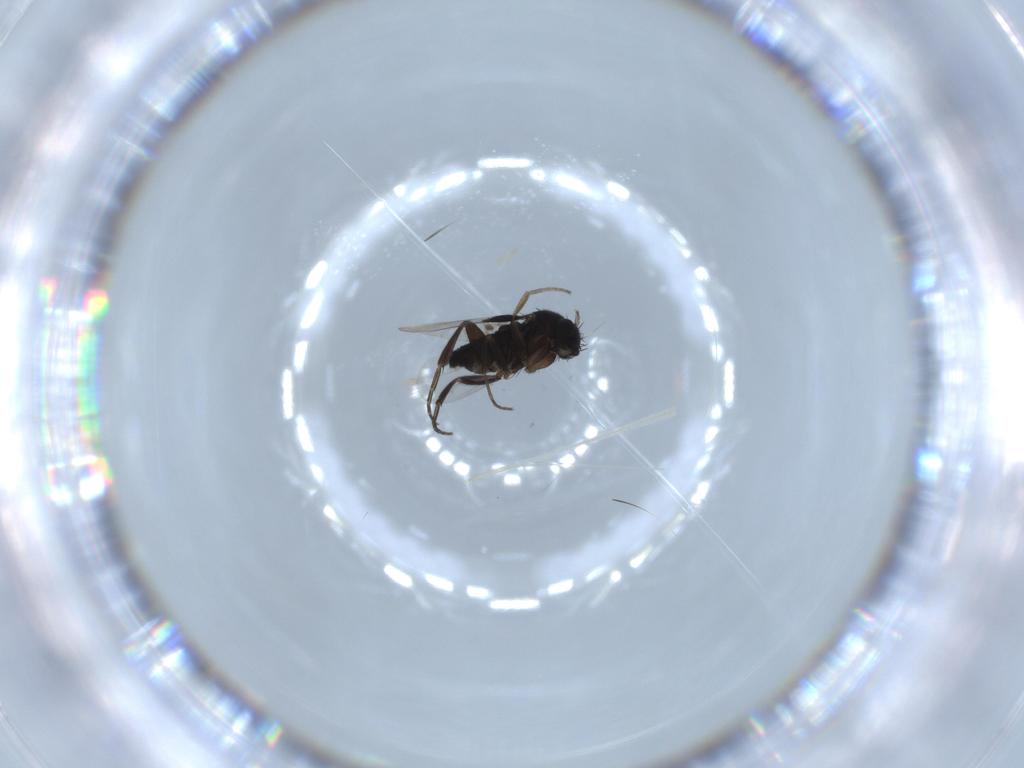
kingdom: Animalia
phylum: Arthropoda
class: Insecta
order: Diptera
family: Phoridae
